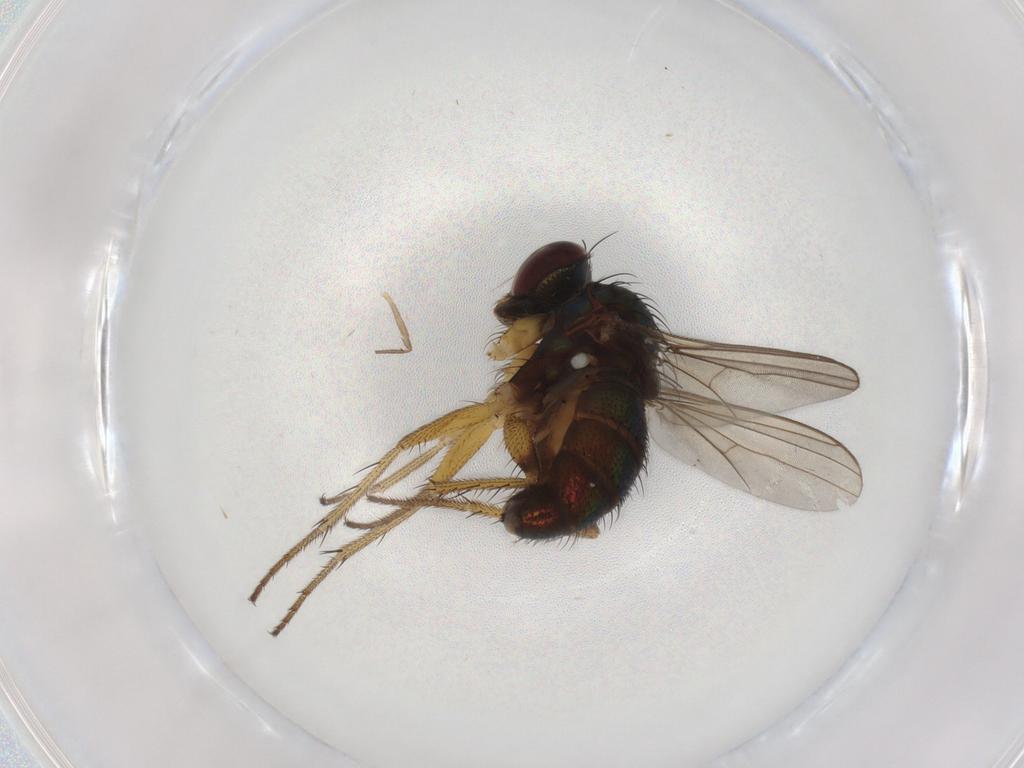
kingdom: Animalia
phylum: Arthropoda
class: Insecta
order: Diptera
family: Dolichopodidae
